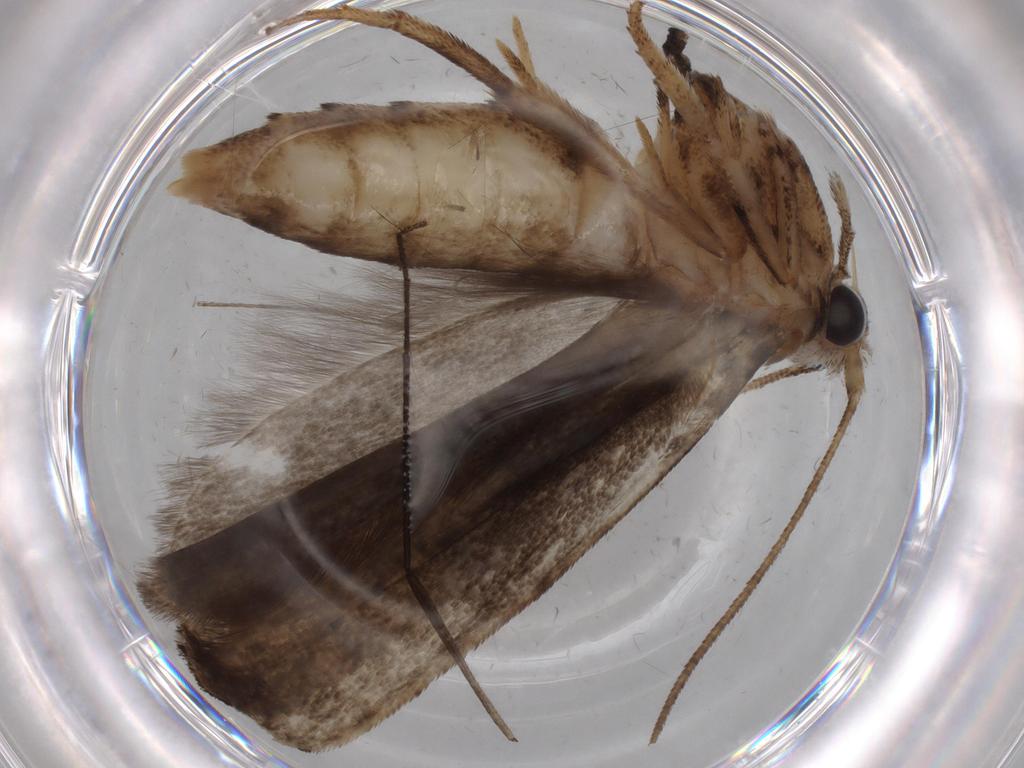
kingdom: Animalia
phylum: Arthropoda
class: Insecta
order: Lepidoptera
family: Yponomeutidae
